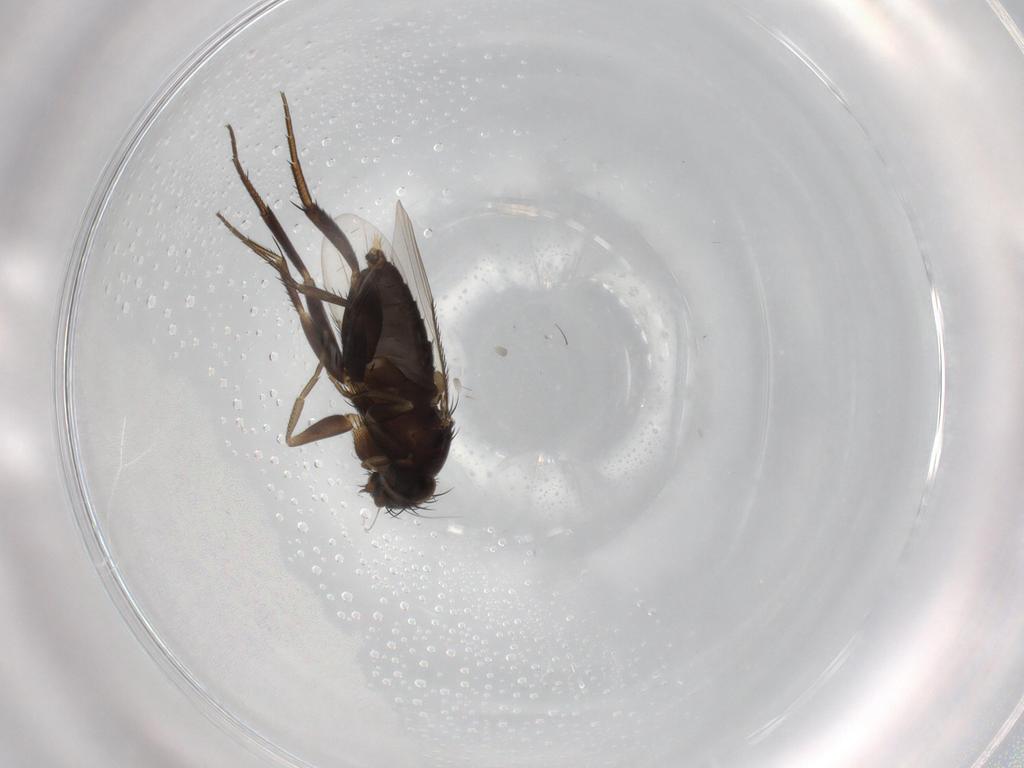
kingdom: Animalia
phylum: Arthropoda
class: Insecta
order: Diptera
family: Phoridae
